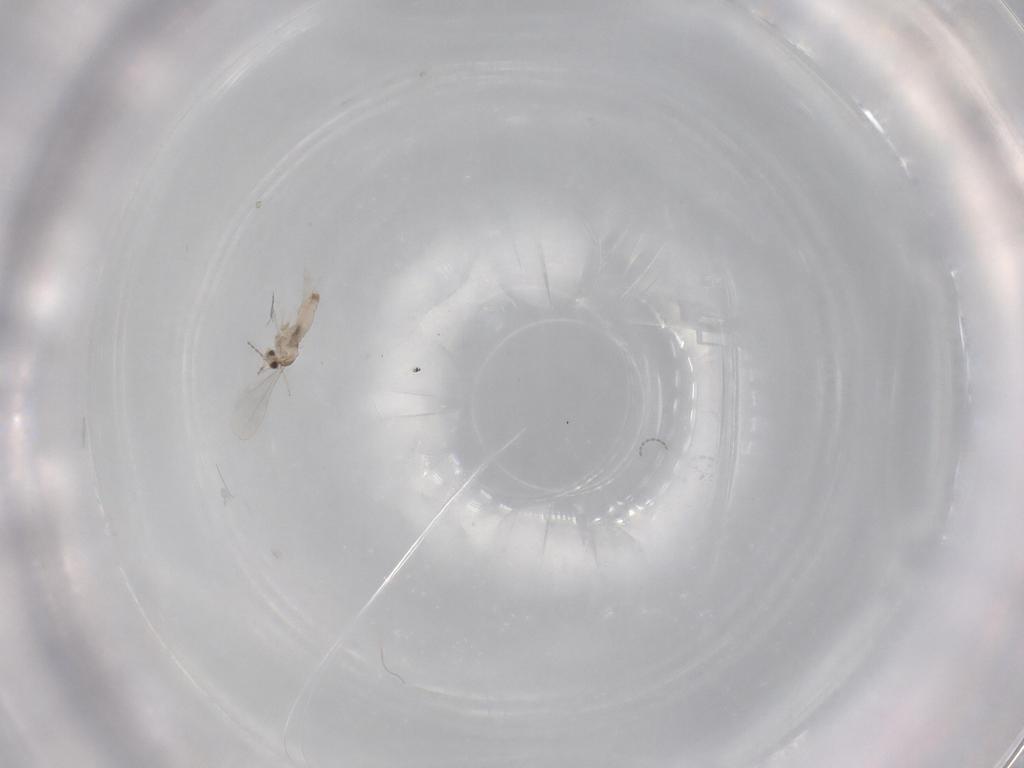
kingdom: Animalia
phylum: Arthropoda
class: Insecta
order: Diptera
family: Cecidomyiidae
